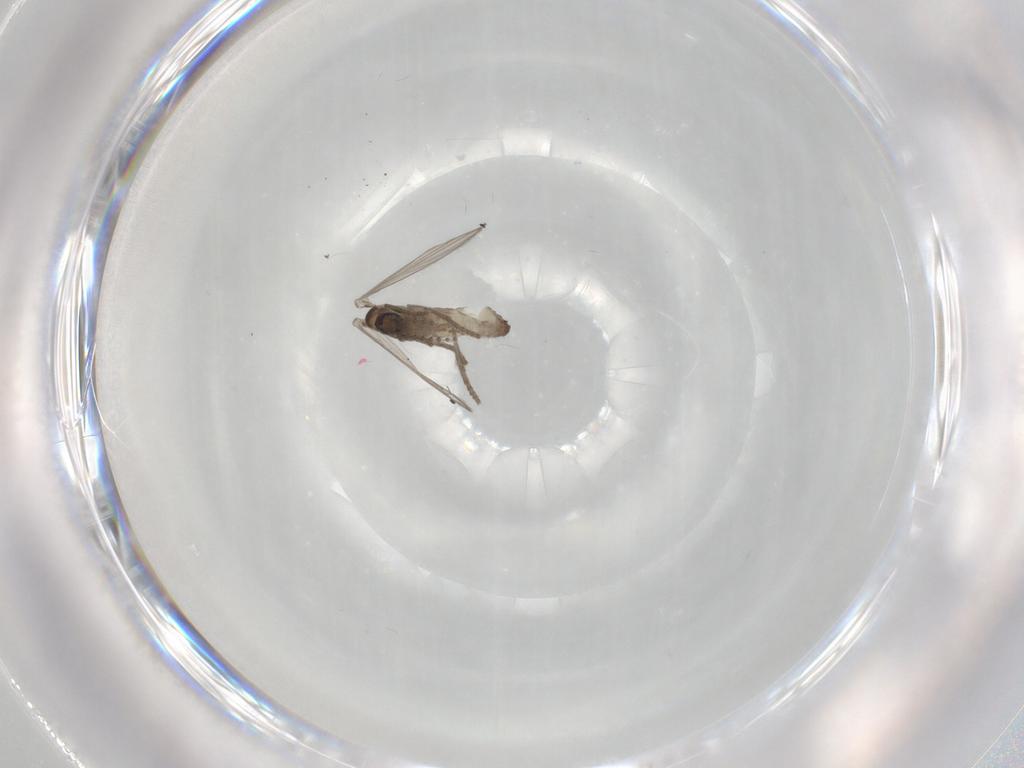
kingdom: Animalia
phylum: Arthropoda
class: Insecta
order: Diptera
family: Psychodidae
